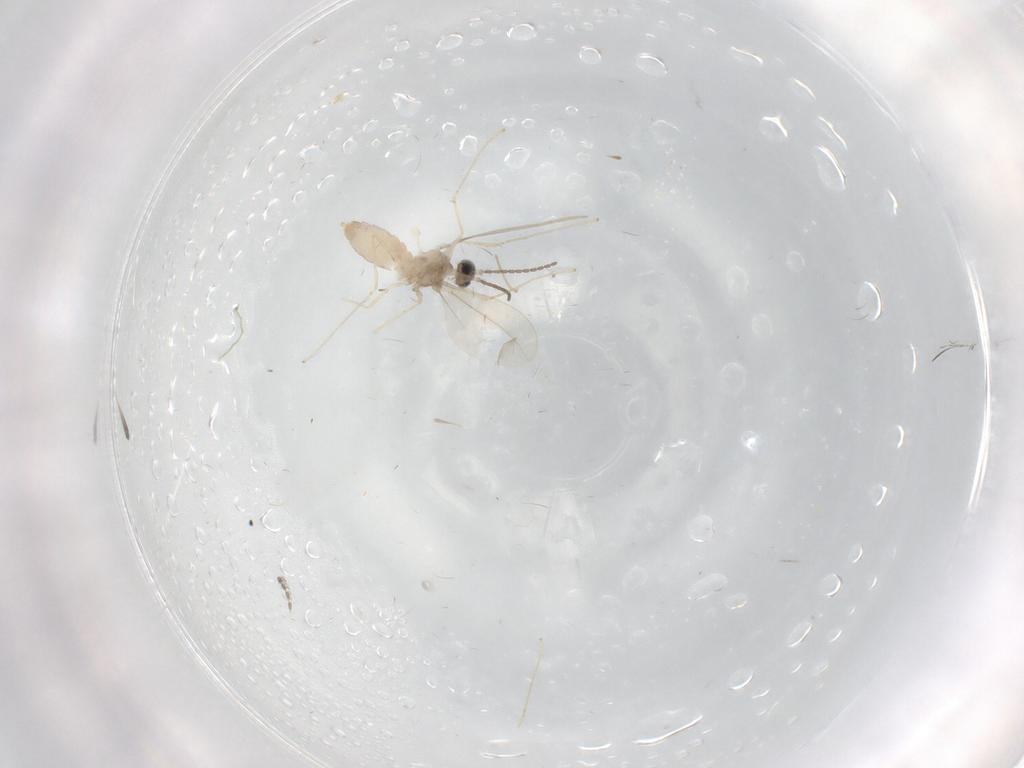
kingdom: Animalia
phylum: Arthropoda
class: Insecta
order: Diptera
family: Cecidomyiidae
